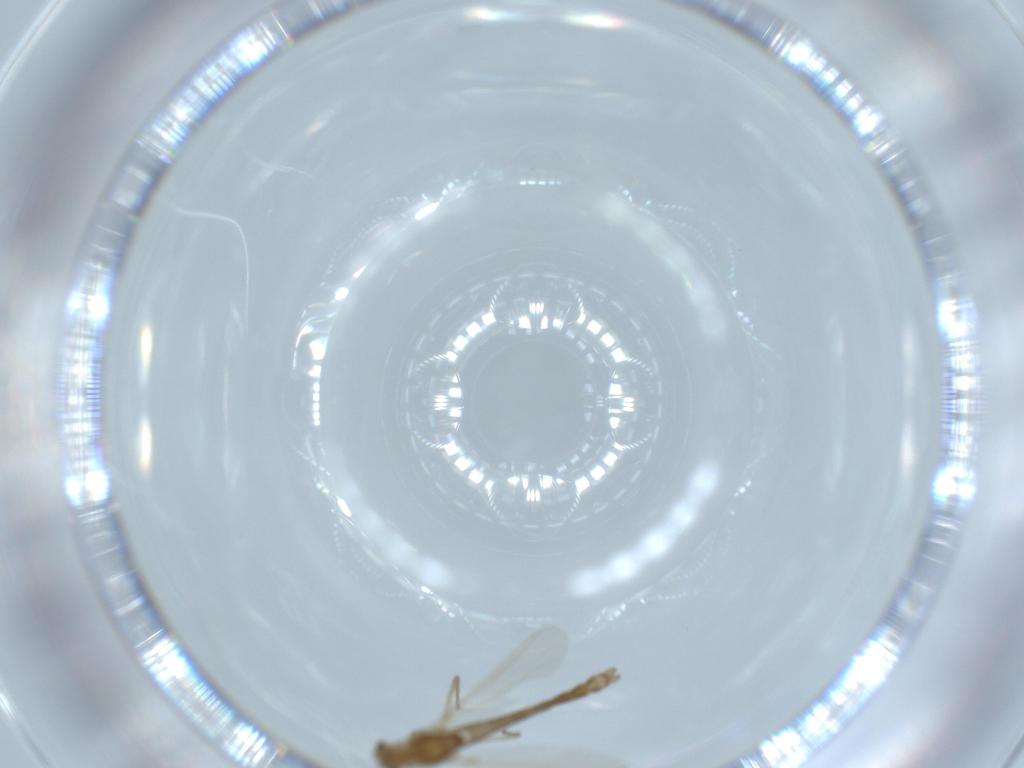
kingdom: Animalia
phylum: Arthropoda
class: Insecta
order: Diptera
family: Chironomidae
